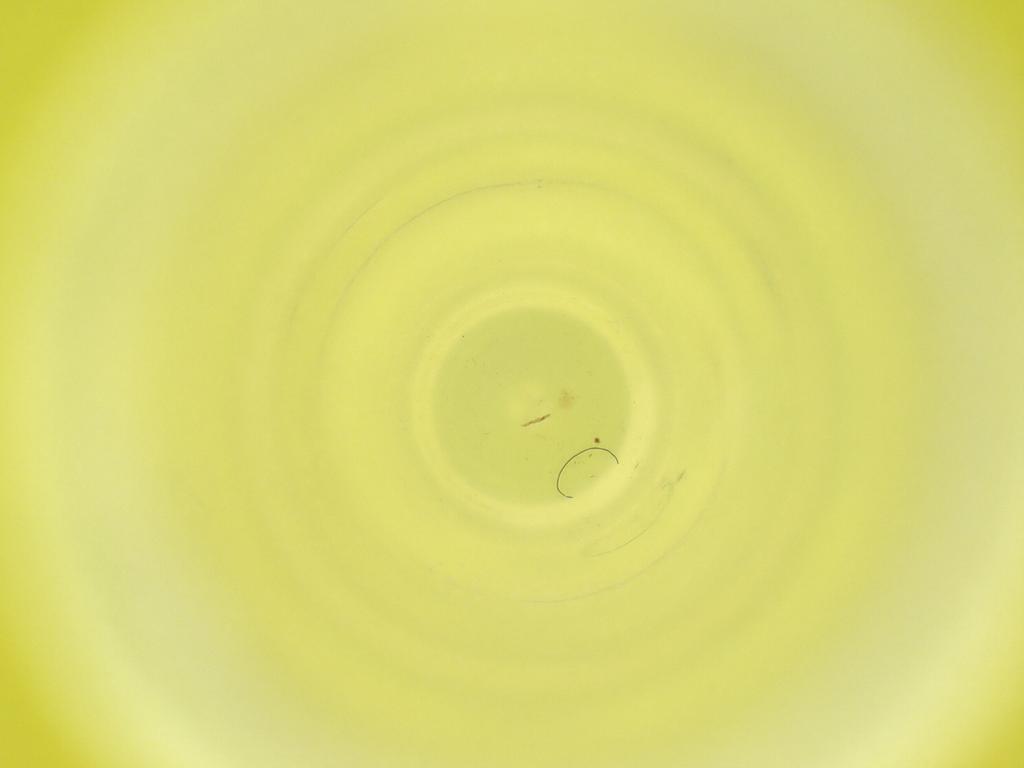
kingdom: Animalia
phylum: Arthropoda
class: Insecta
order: Diptera
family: Cecidomyiidae
